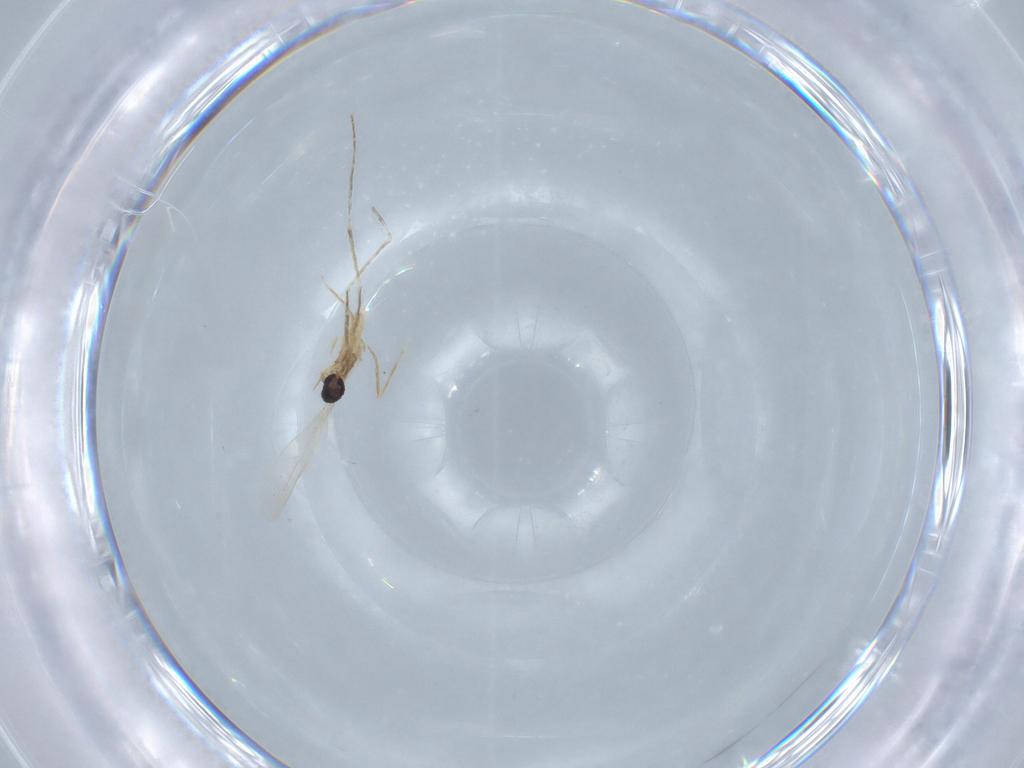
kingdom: Animalia
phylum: Arthropoda
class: Insecta
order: Diptera
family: Cecidomyiidae
